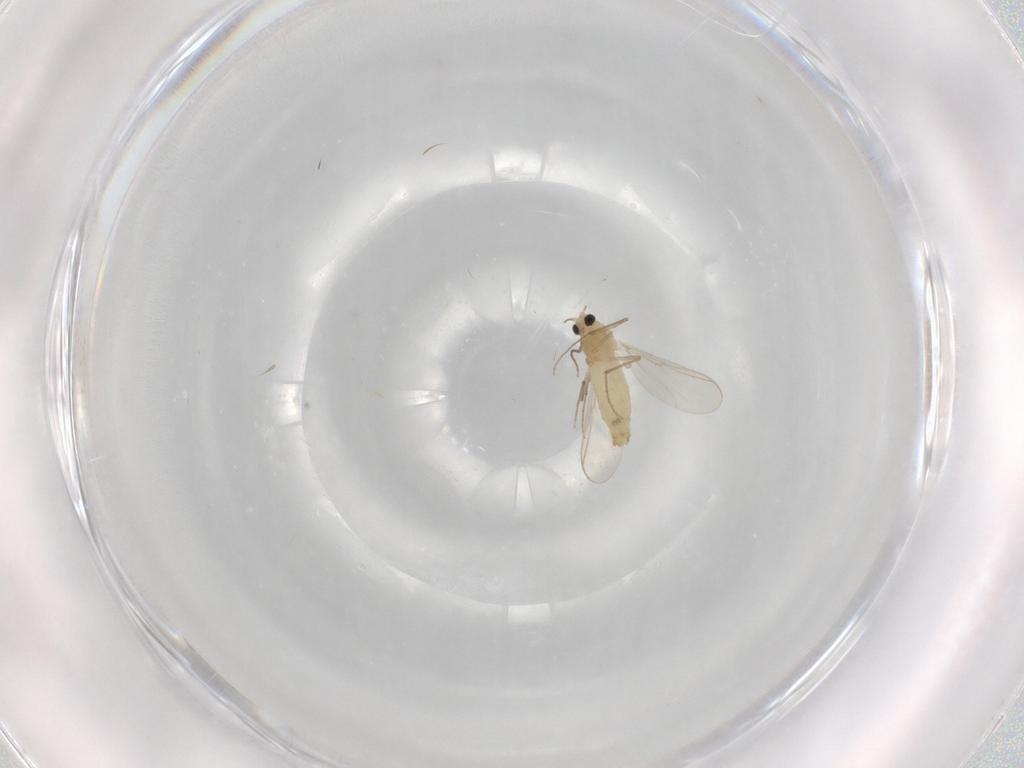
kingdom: Animalia
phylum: Arthropoda
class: Insecta
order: Diptera
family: Chironomidae
